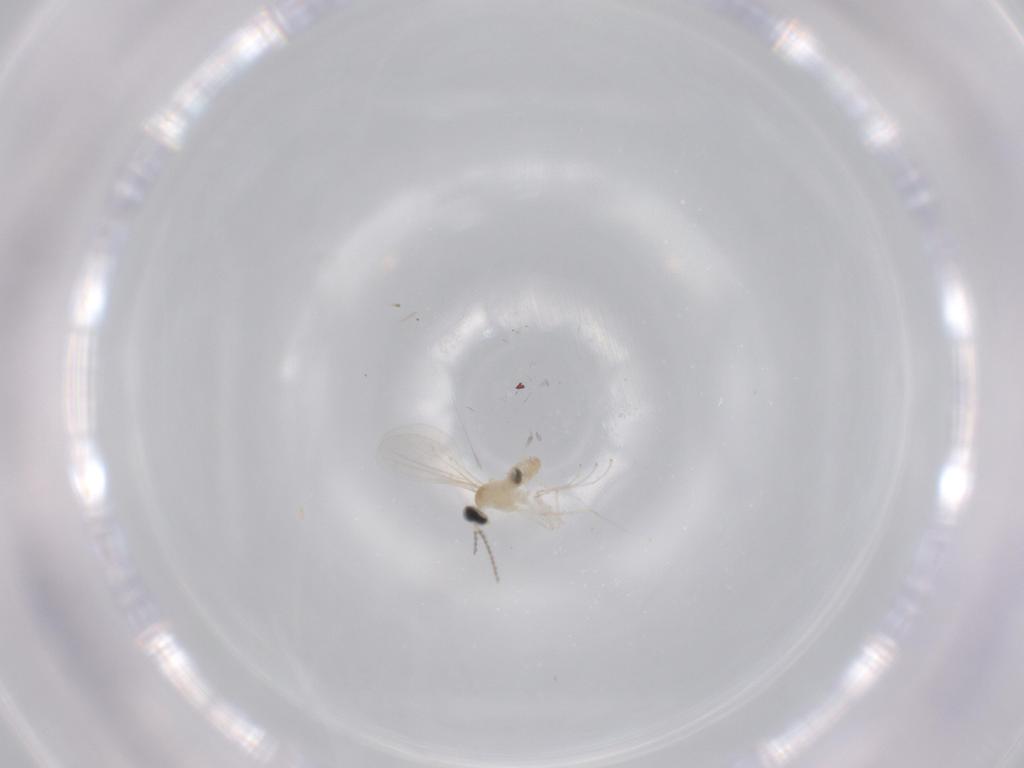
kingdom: Animalia
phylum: Arthropoda
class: Insecta
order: Diptera
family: Cecidomyiidae
